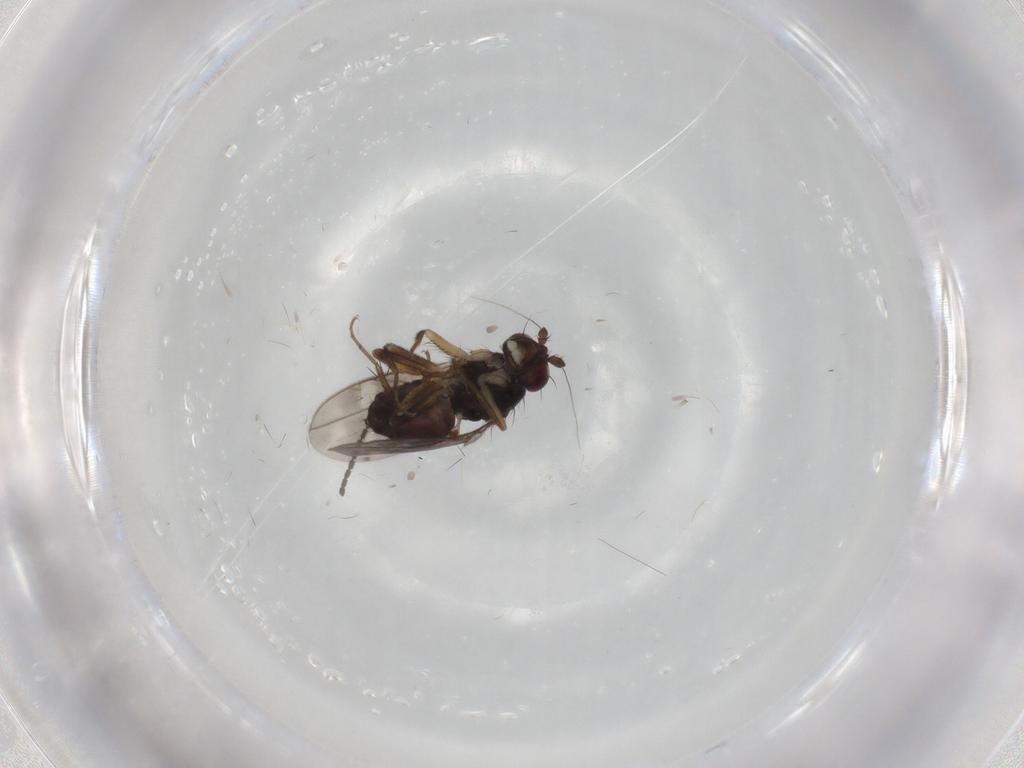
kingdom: Animalia
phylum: Arthropoda
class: Insecta
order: Diptera
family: Sphaeroceridae
